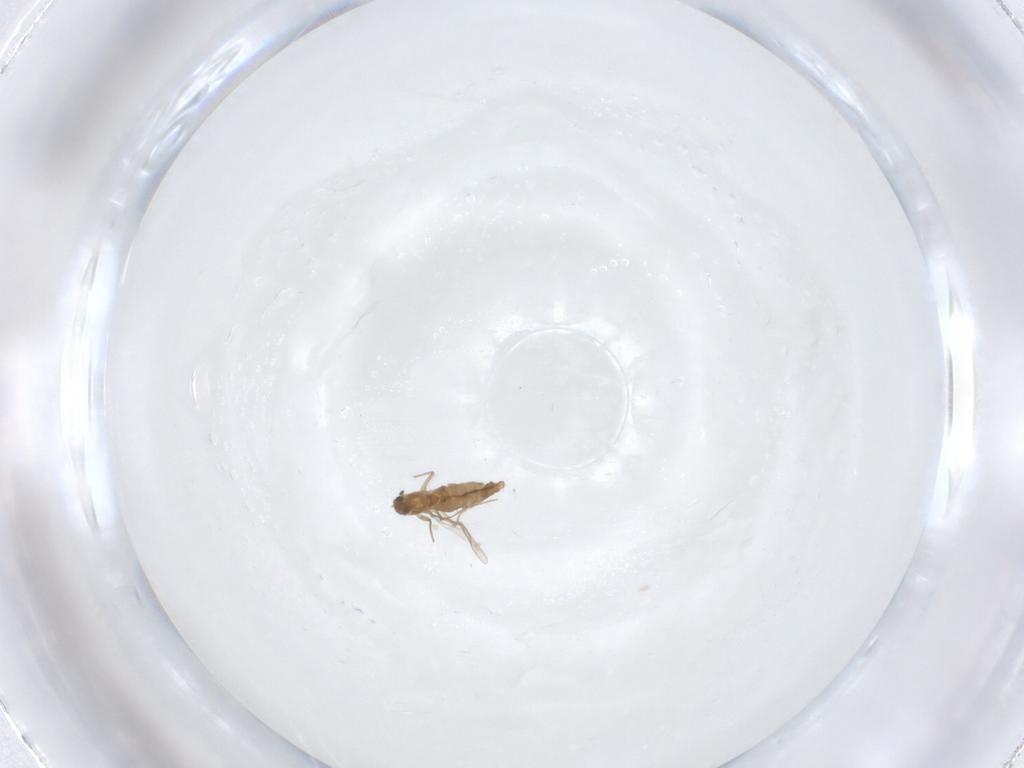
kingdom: Animalia
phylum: Arthropoda
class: Insecta
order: Diptera
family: Chironomidae
